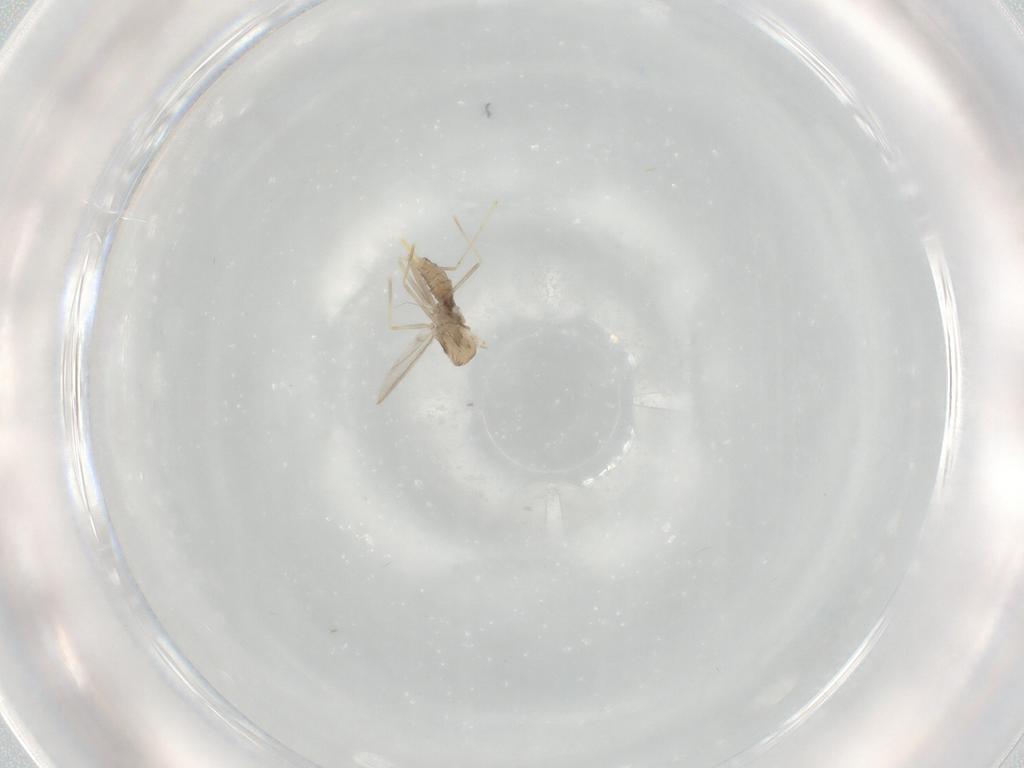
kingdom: Animalia
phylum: Arthropoda
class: Insecta
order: Diptera
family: Cecidomyiidae
